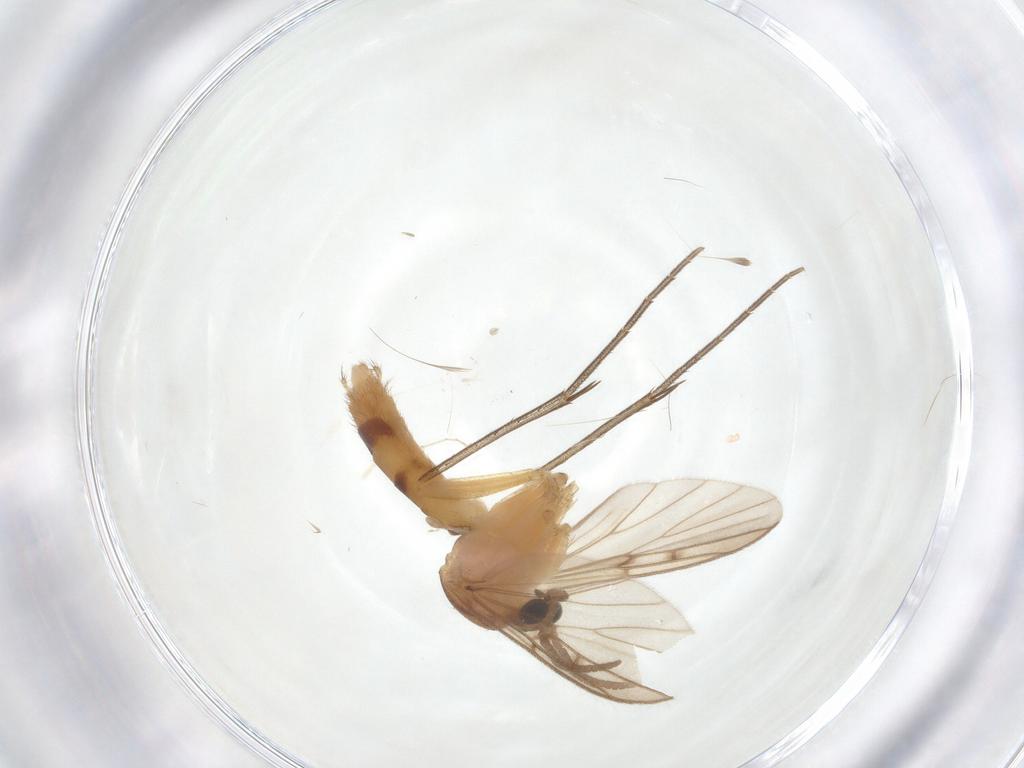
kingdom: Animalia
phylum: Arthropoda
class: Insecta
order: Diptera
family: Mycetophilidae
